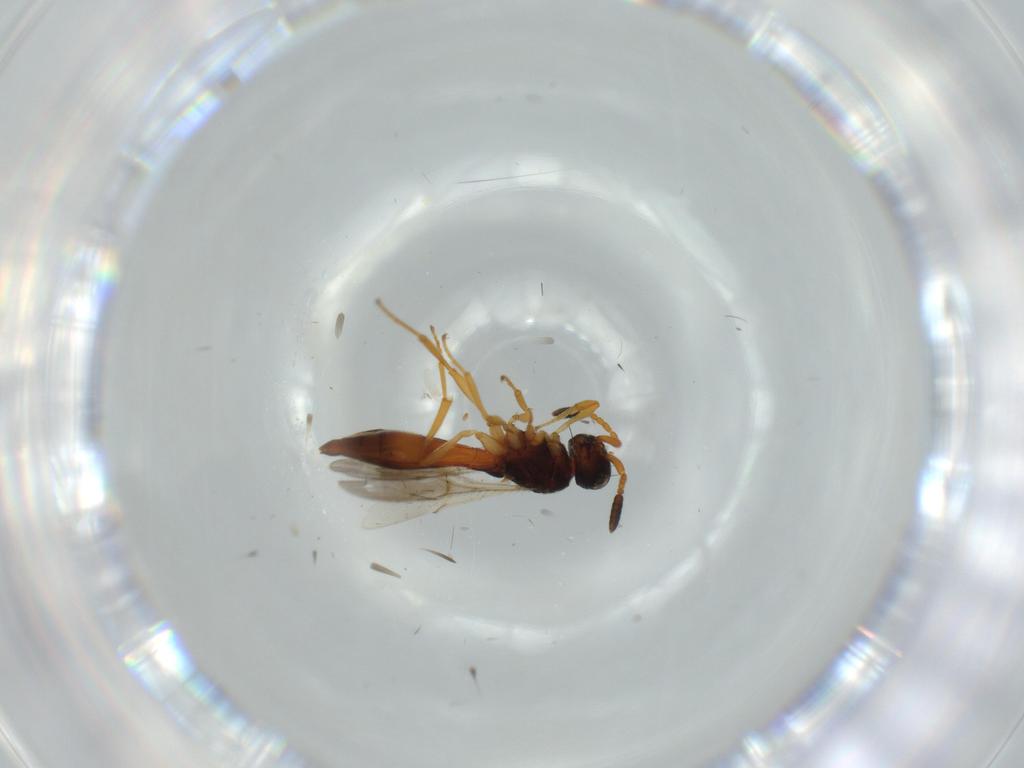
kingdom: Animalia
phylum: Arthropoda
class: Insecta
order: Hymenoptera
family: Scelionidae
